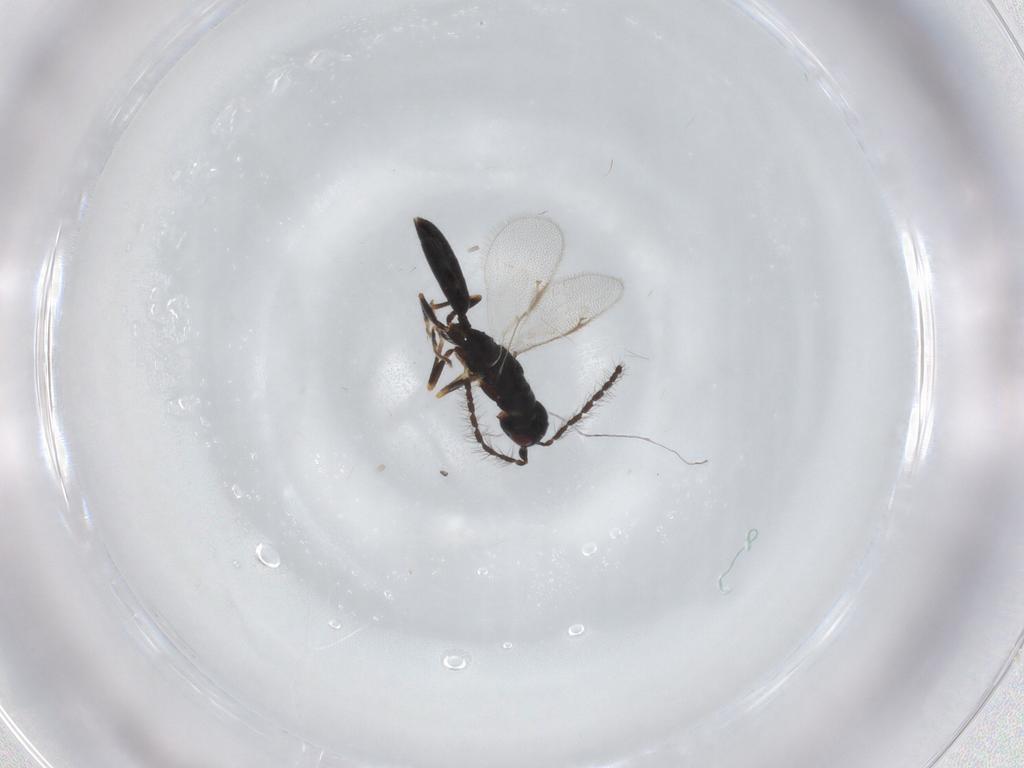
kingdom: Animalia
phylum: Arthropoda
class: Insecta
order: Hymenoptera
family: Eurytomidae
